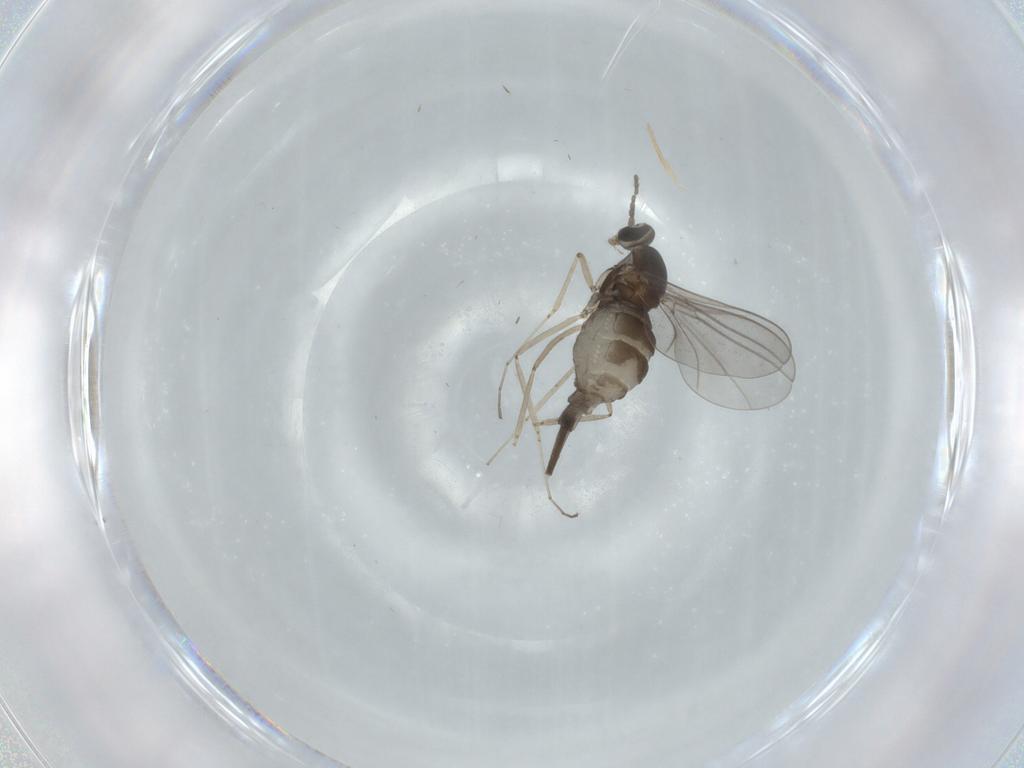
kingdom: Animalia
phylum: Arthropoda
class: Insecta
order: Diptera
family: Cecidomyiidae
